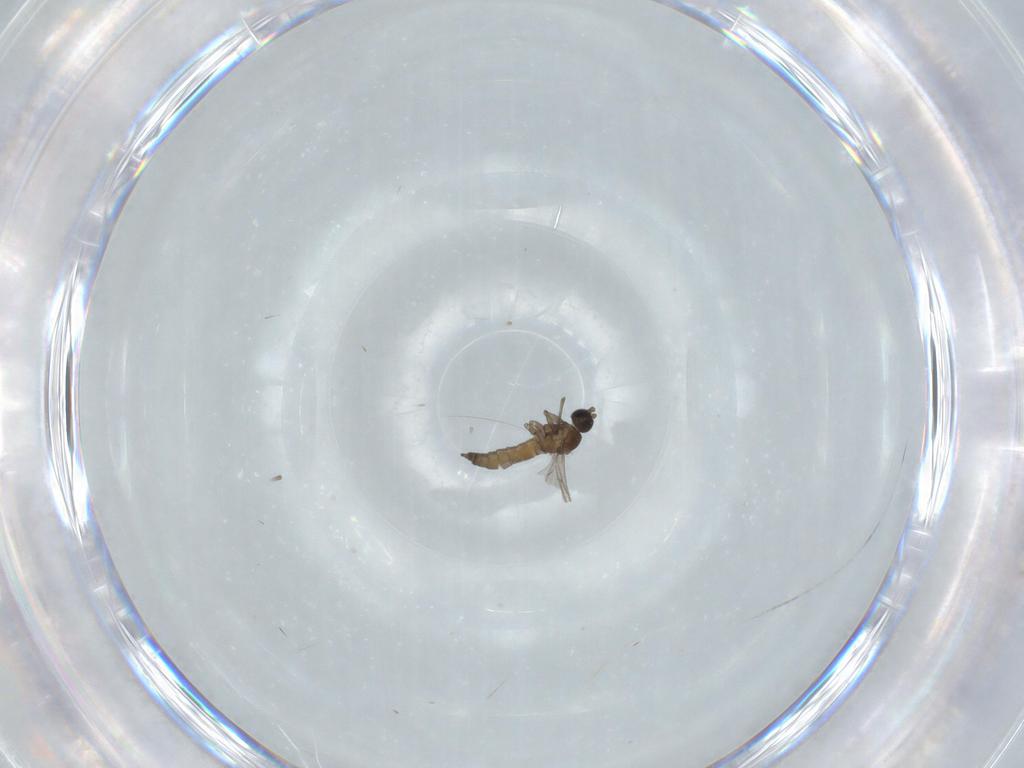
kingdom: Animalia
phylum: Arthropoda
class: Insecta
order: Diptera
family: Sciaridae
